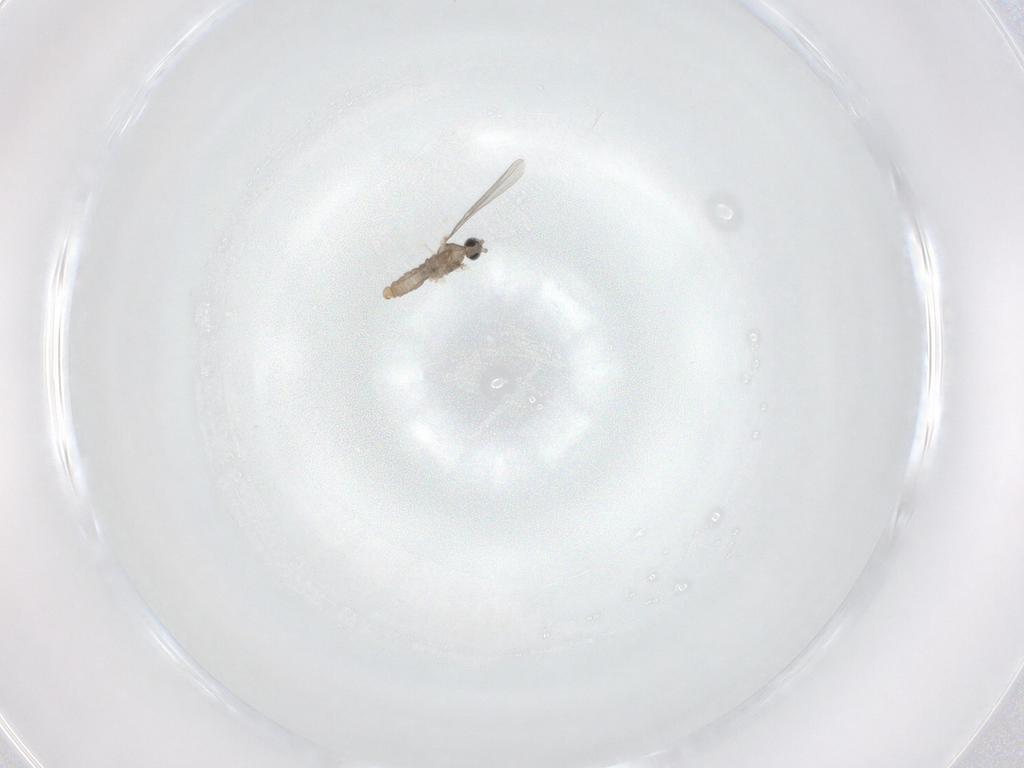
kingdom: Animalia
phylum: Arthropoda
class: Insecta
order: Diptera
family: Cecidomyiidae
